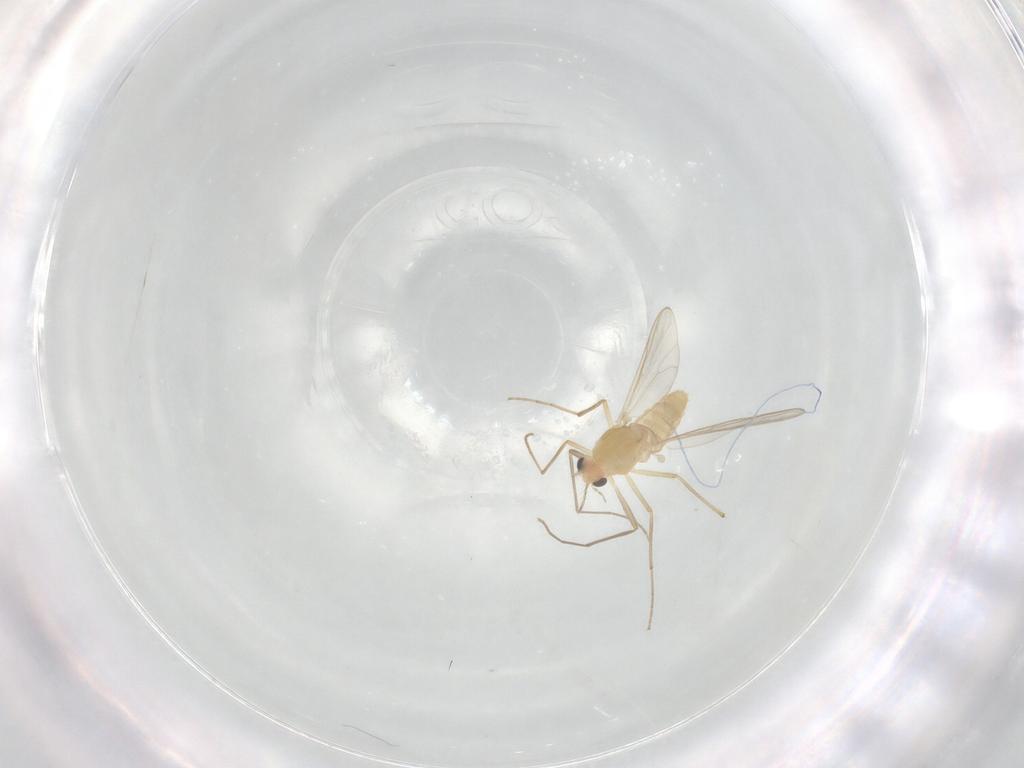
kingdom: Animalia
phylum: Arthropoda
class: Insecta
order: Diptera
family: Chironomidae
